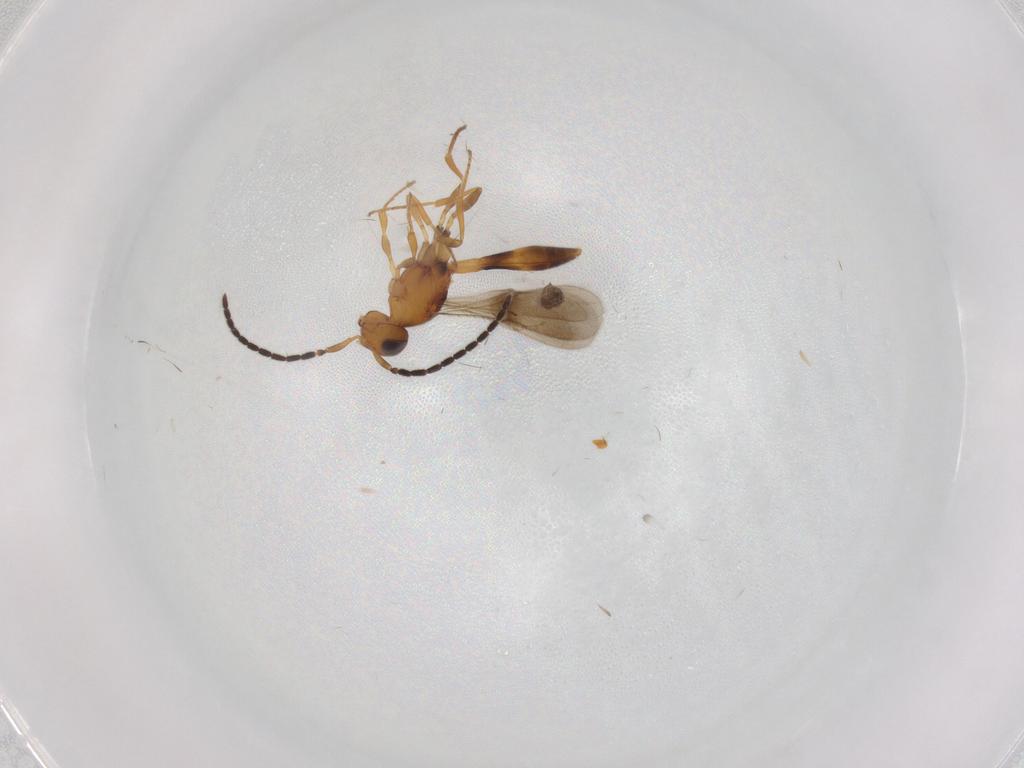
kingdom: Animalia
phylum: Arthropoda
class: Insecta
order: Hymenoptera
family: Scelionidae
